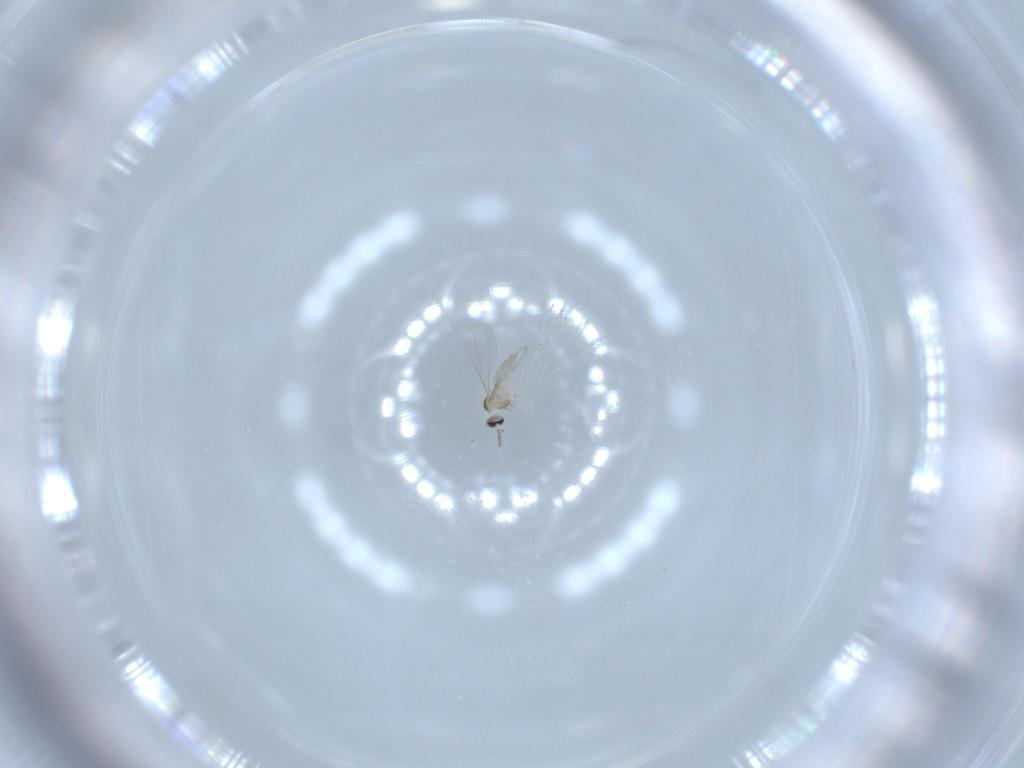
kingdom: Animalia
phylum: Arthropoda
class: Insecta
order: Diptera
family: Cecidomyiidae
